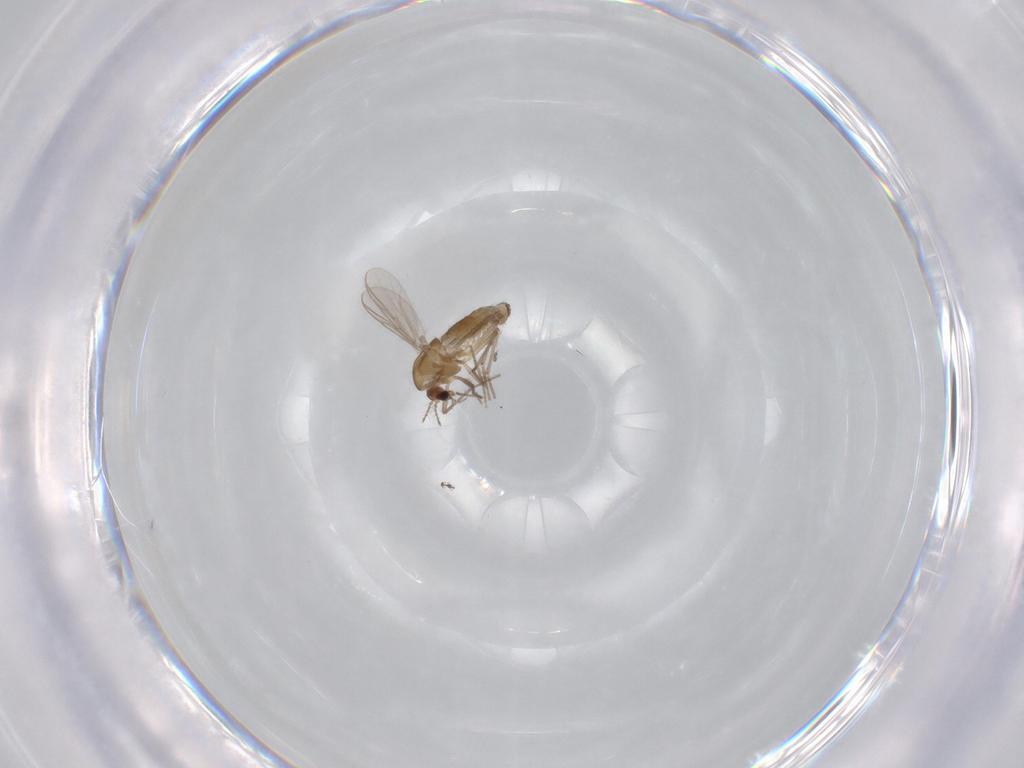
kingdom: Animalia
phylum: Arthropoda
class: Insecta
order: Diptera
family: Chironomidae
